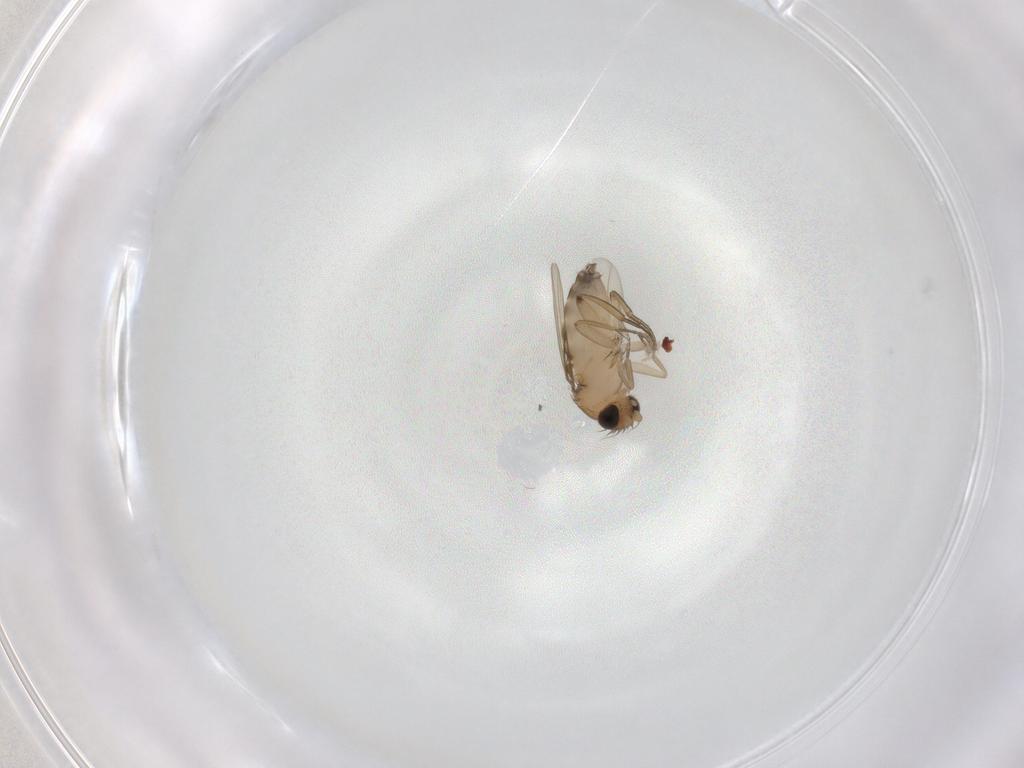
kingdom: Animalia
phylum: Arthropoda
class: Insecta
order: Diptera
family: Phoridae
